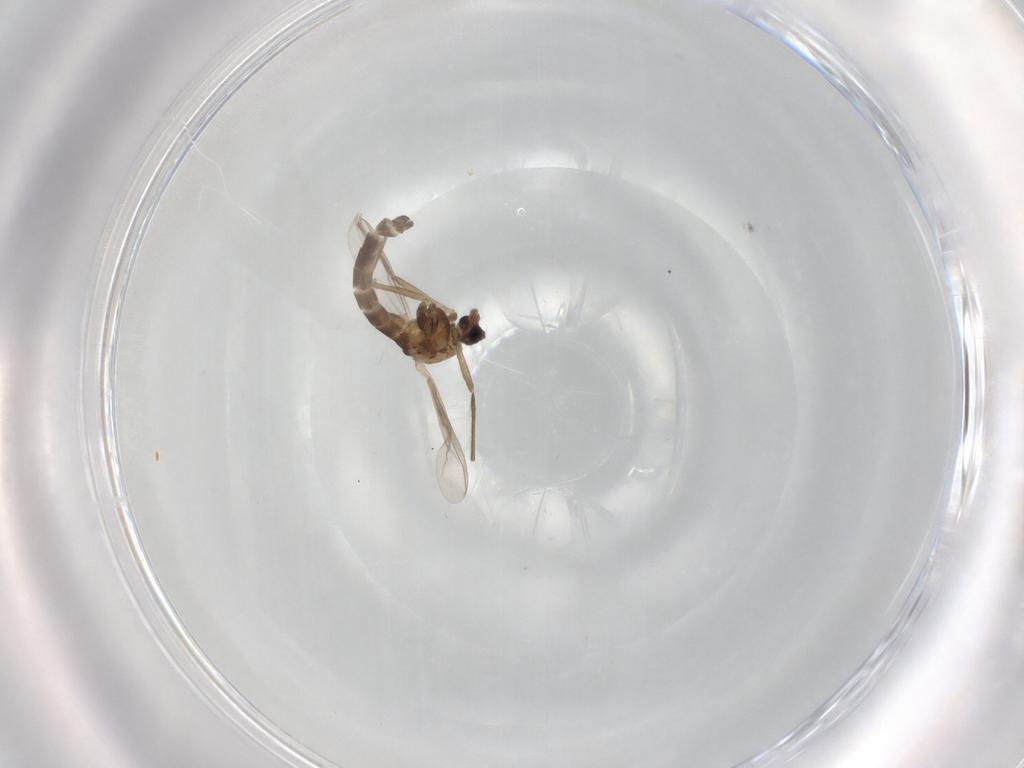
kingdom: Animalia
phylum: Arthropoda
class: Insecta
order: Diptera
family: Chironomidae
